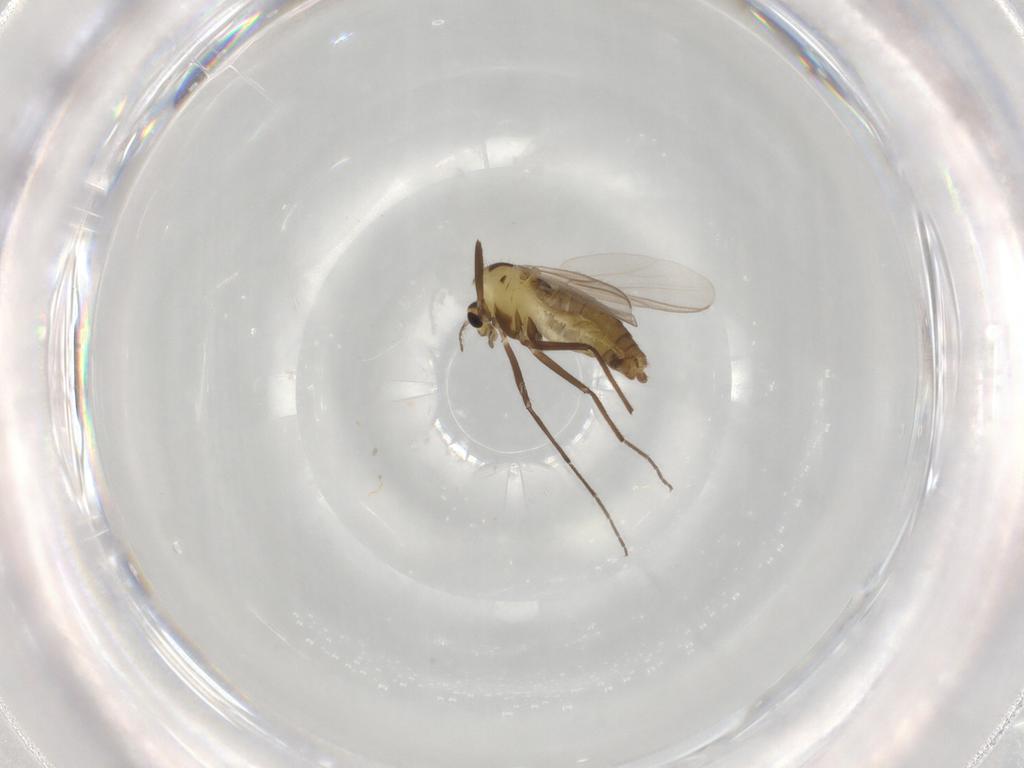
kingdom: Animalia
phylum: Arthropoda
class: Insecta
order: Diptera
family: Chironomidae
